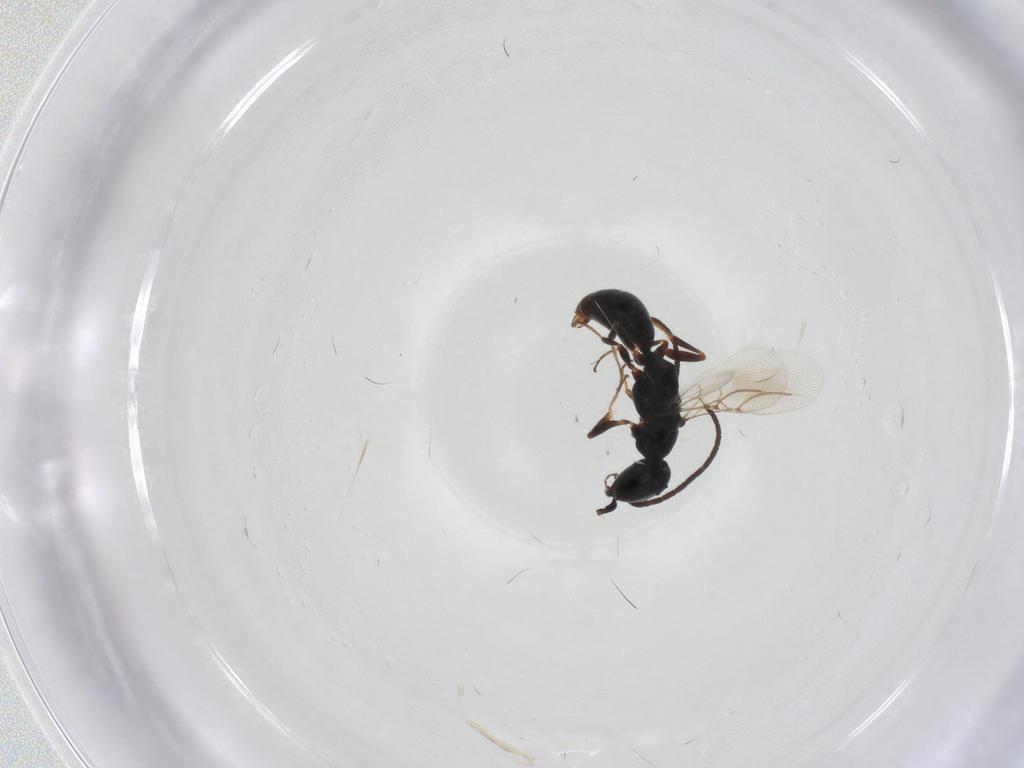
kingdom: Animalia
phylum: Arthropoda
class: Insecta
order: Hymenoptera
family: Bethylidae
